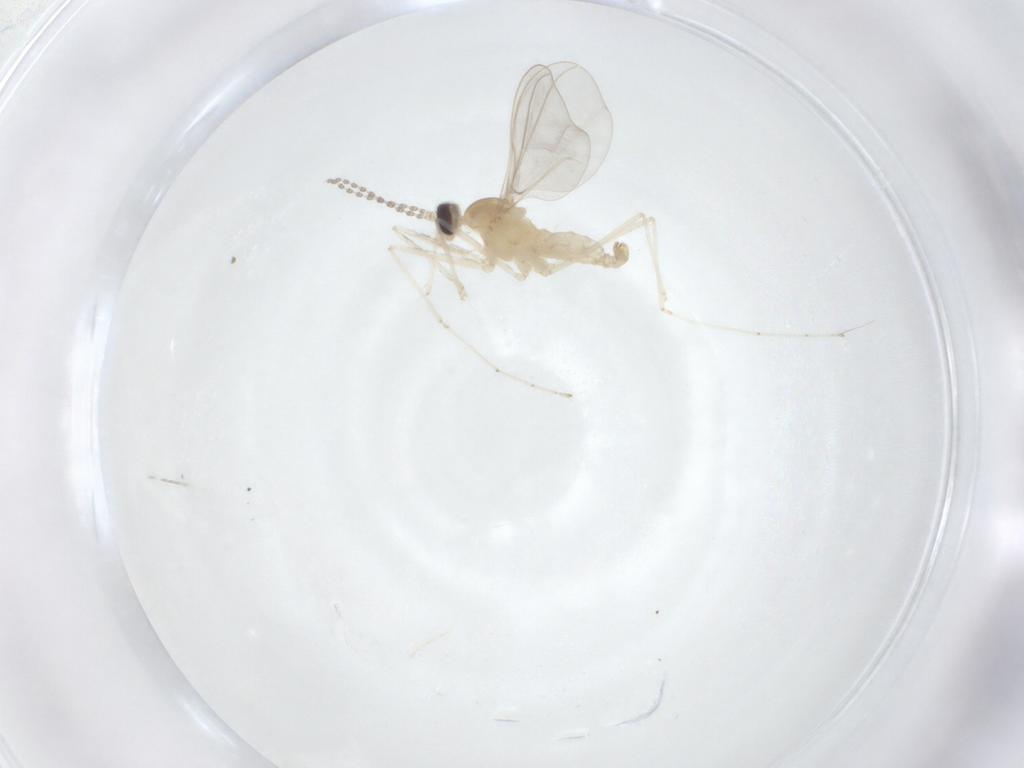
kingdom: Animalia
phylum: Arthropoda
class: Insecta
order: Diptera
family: Cecidomyiidae
